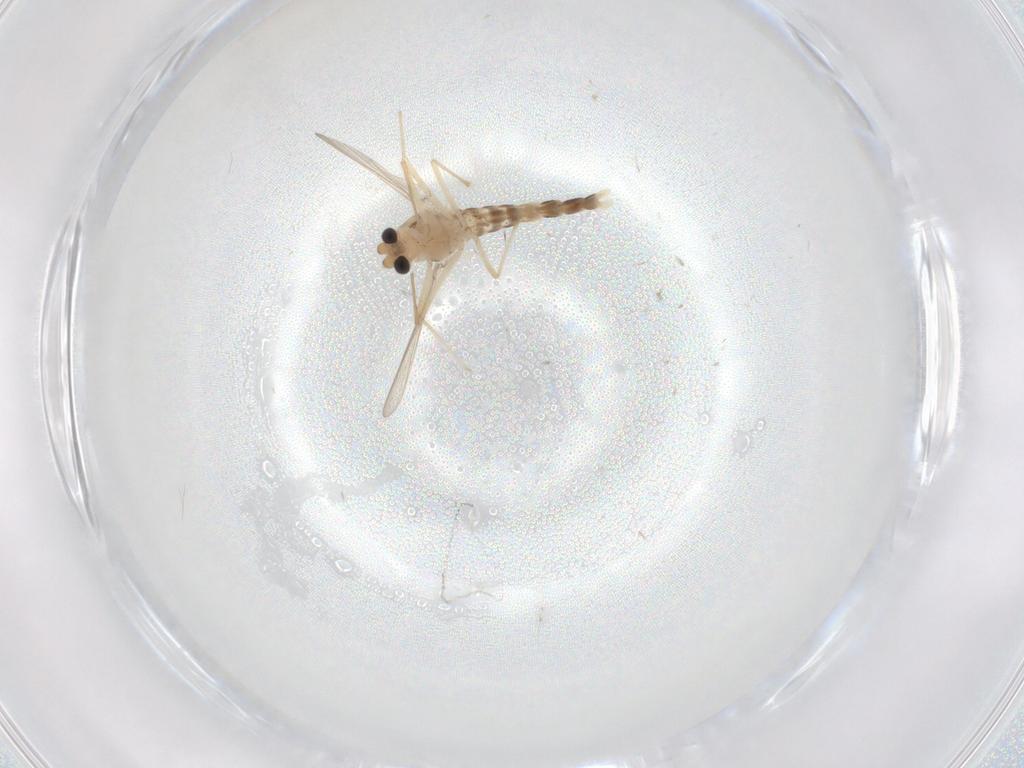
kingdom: Animalia
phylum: Arthropoda
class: Insecta
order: Diptera
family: Chironomidae
